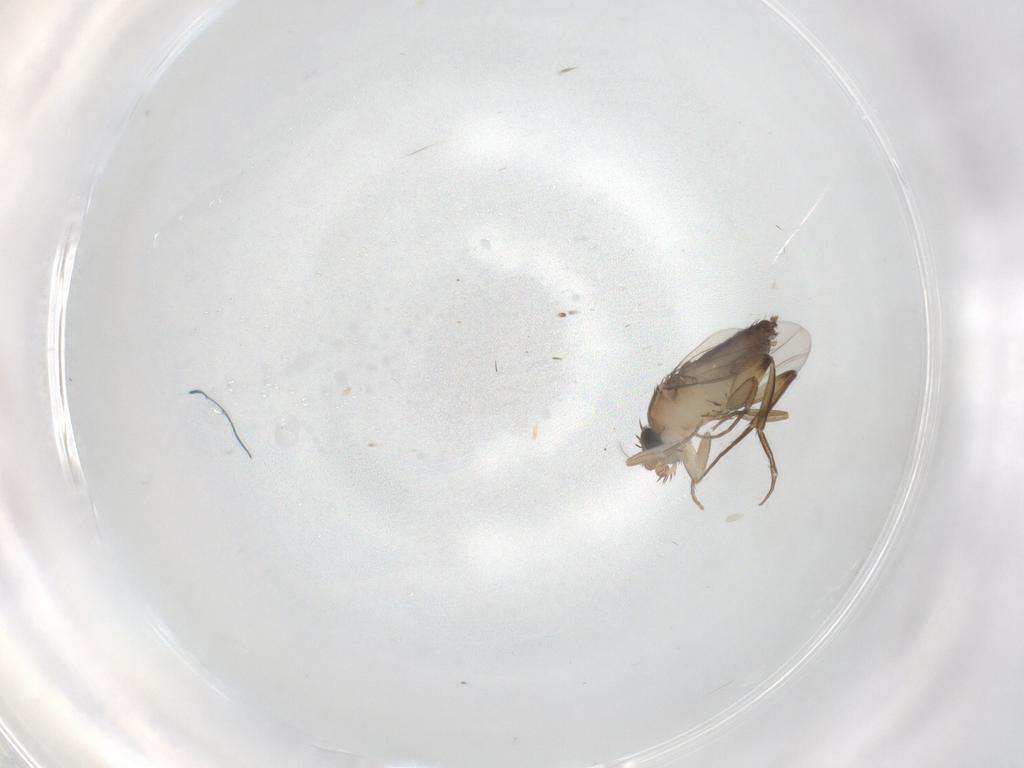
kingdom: Animalia
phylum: Arthropoda
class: Insecta
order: Diptera
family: Phoridae
